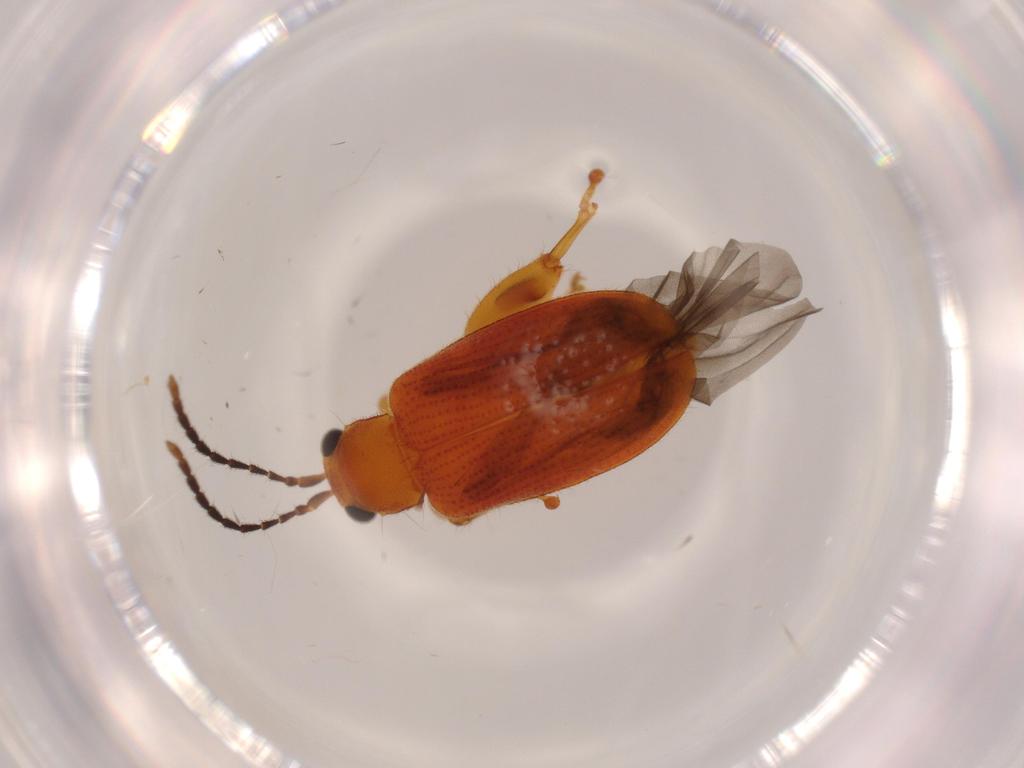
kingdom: Animalia
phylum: Arthropoda
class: Insecta
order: Coleoptera
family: Chrysomelidae
